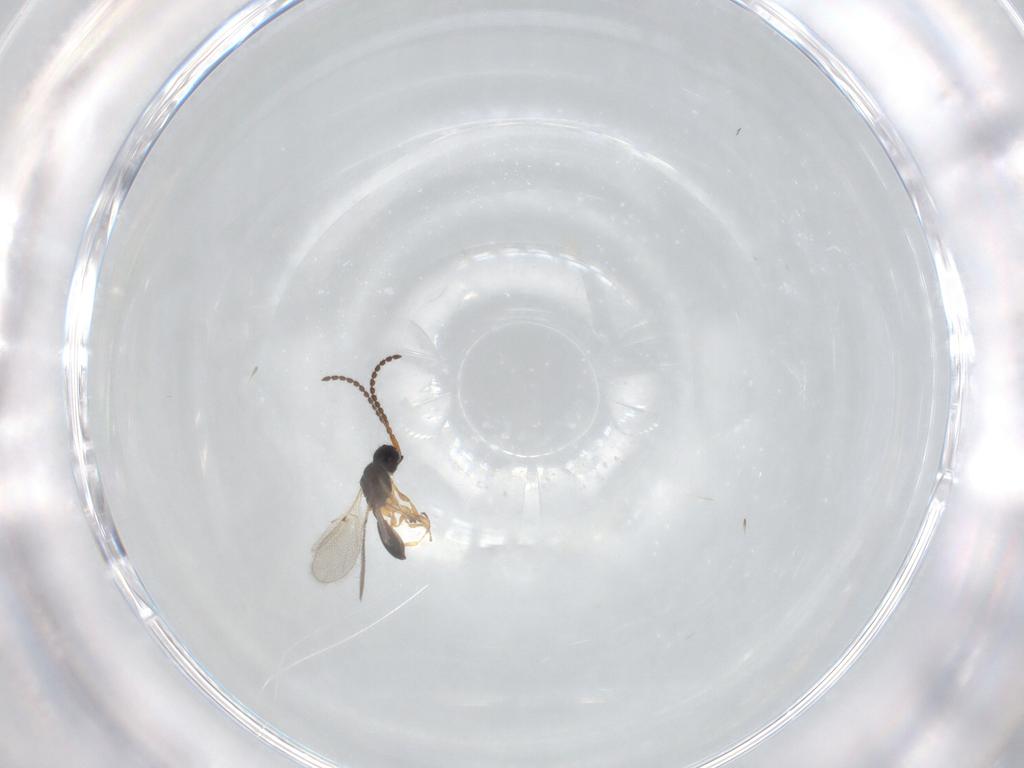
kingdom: Animalia
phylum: Arthropoda
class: Insecta
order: Hymenoptera
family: Diapriidae
